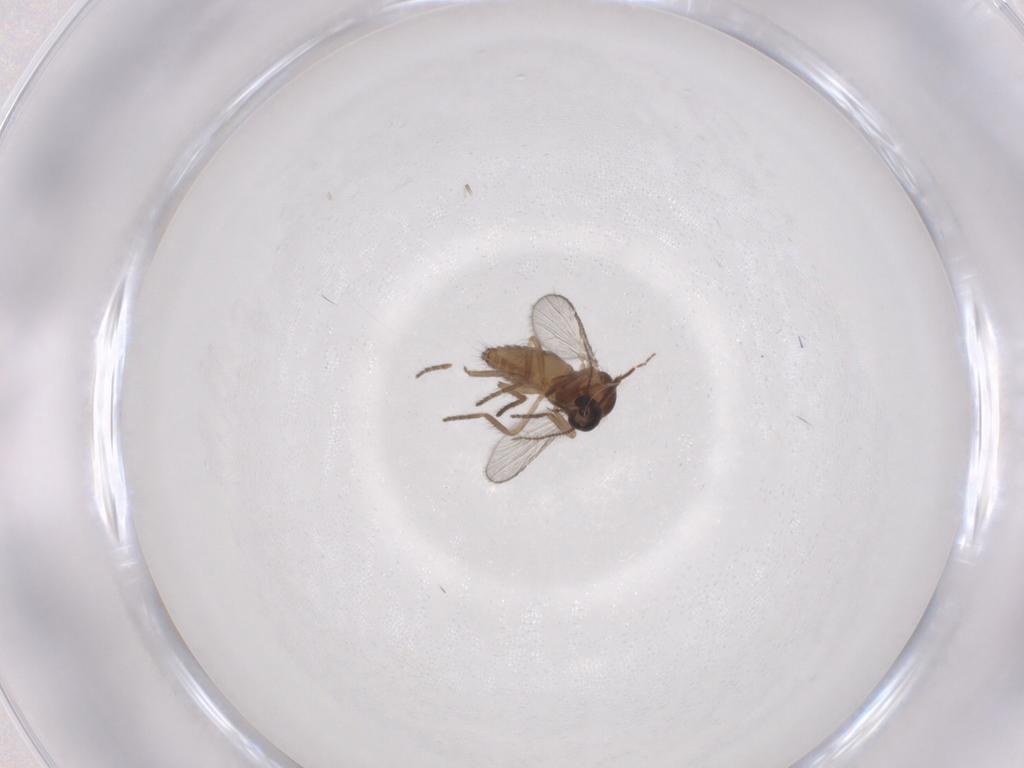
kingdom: Animalia
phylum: Arthropoda
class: Insecta
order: Diptera
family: Ceratopogonidae
